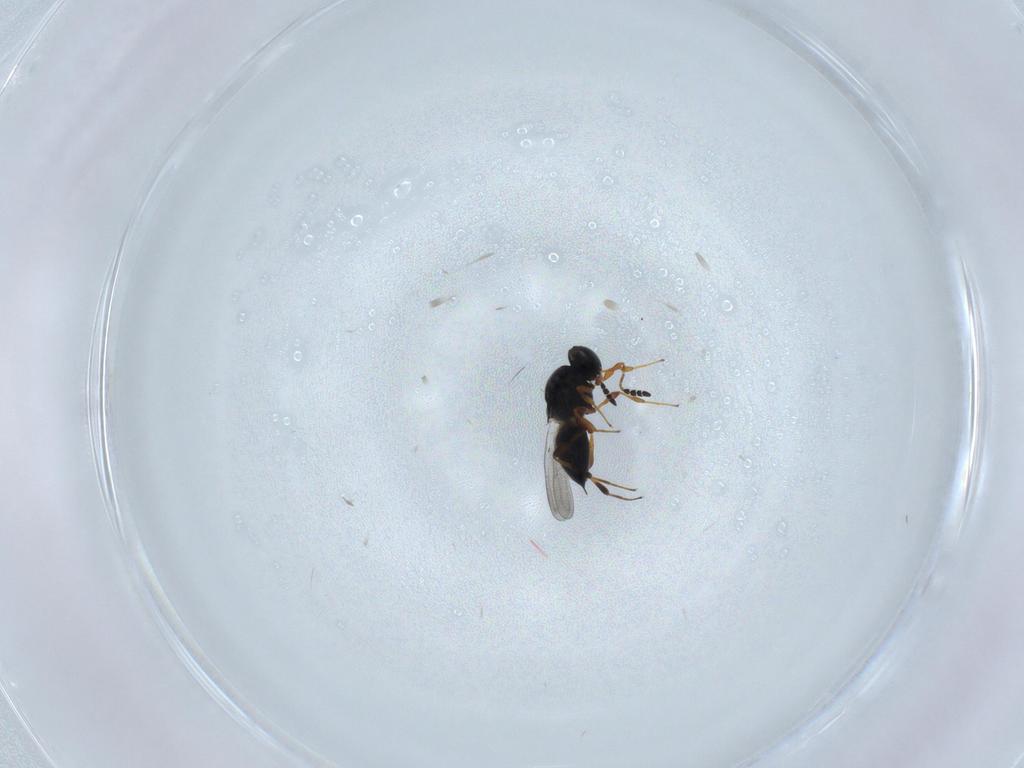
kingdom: Animalia
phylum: Arthropoda
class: Insecta
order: Hymenoptera
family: Platygastridae
